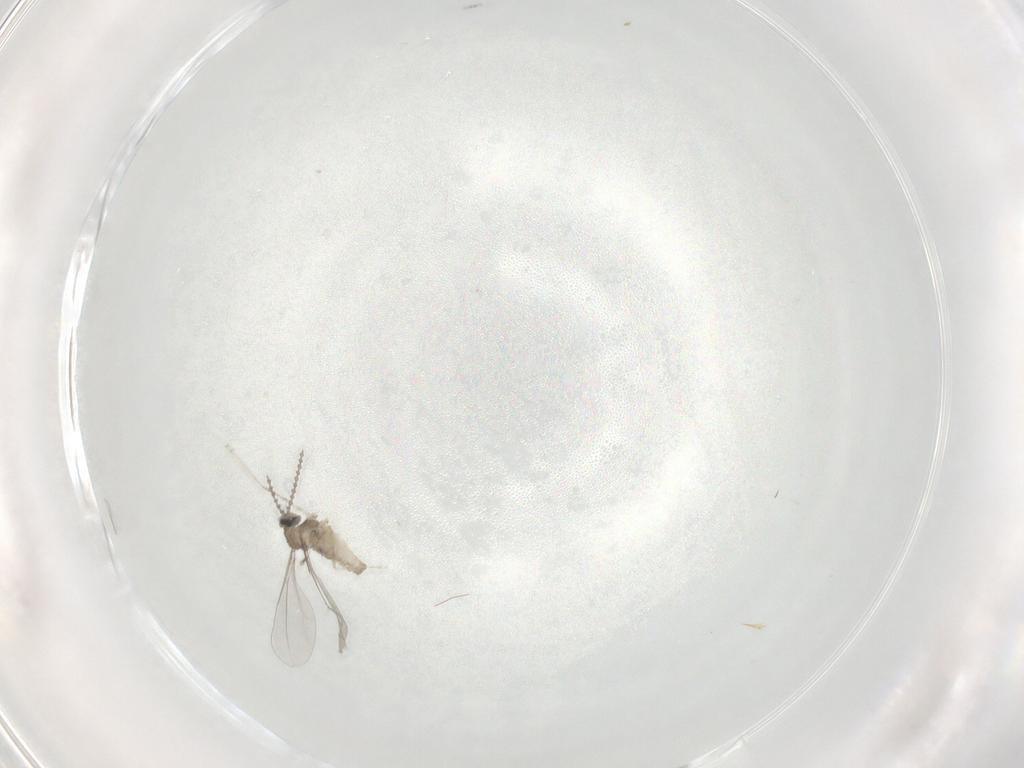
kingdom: Animalia
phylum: Arthropoda
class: Insecta
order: Diptera
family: Cecidomyiidae
